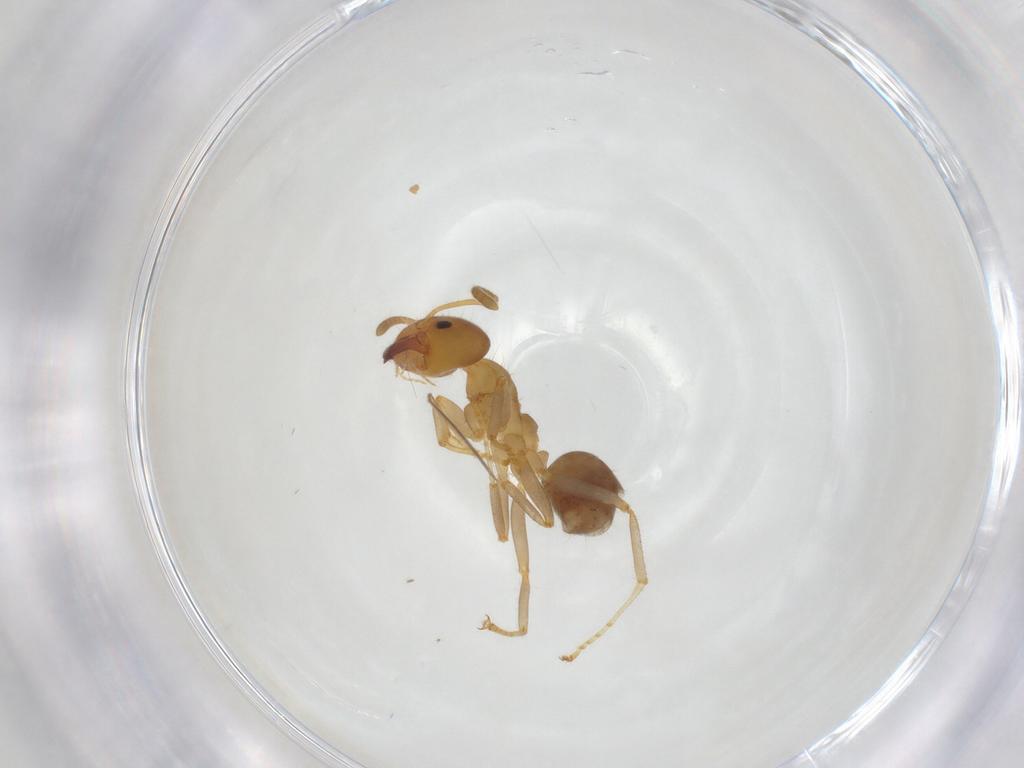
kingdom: Animalia
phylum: Arthropoda
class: Insecta
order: Hymenoptera
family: Formicidae
